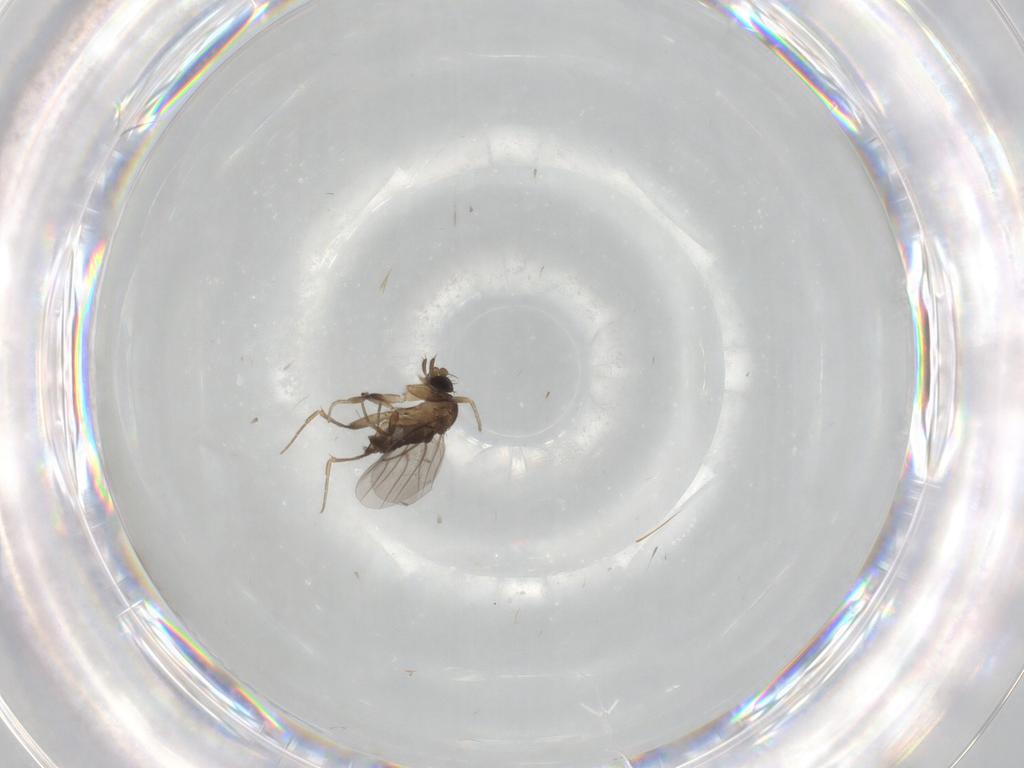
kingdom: Animalia
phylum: Arthropoda
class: Insecta
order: Diptera
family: Phoridae
